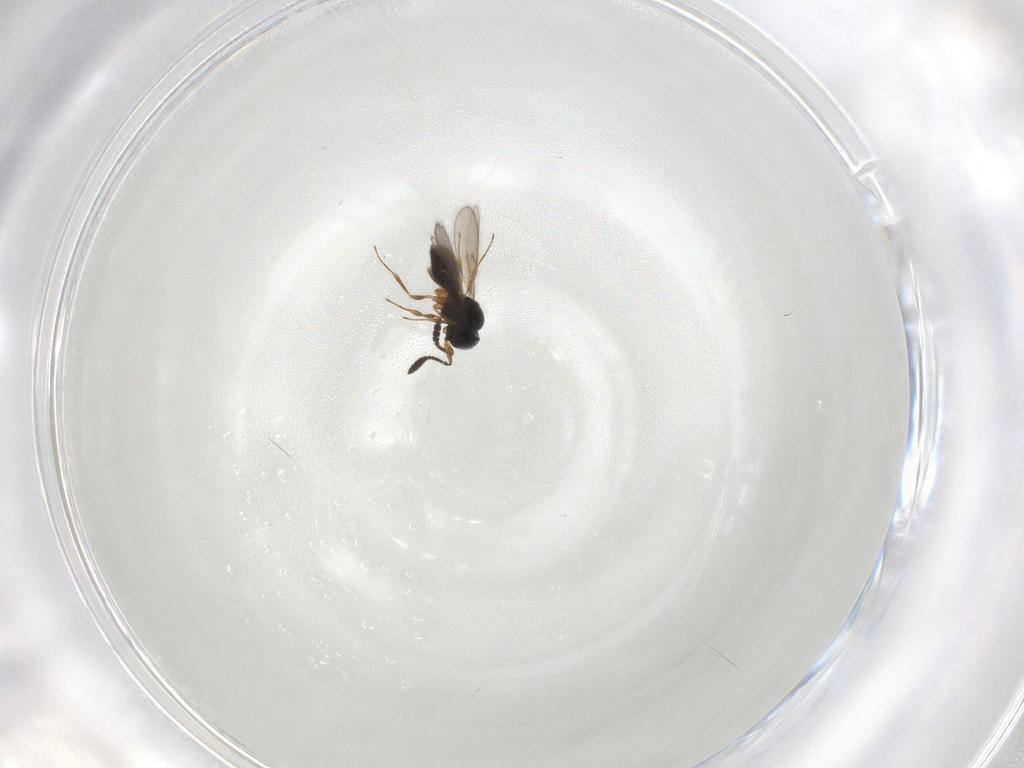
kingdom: Animalia
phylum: Arthropoda
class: Insecta
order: Hymenoptera
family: Scelionidae
